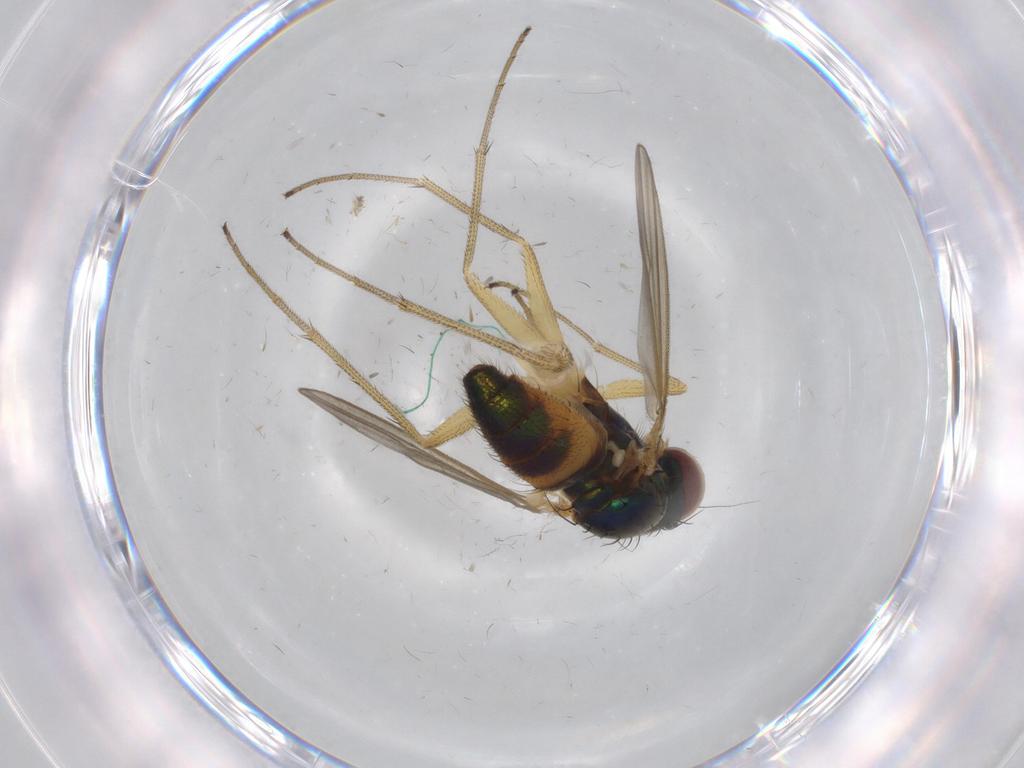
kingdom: Animalia
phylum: Arthropoda
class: Insecta
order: Diptera
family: Dolichopodidae
